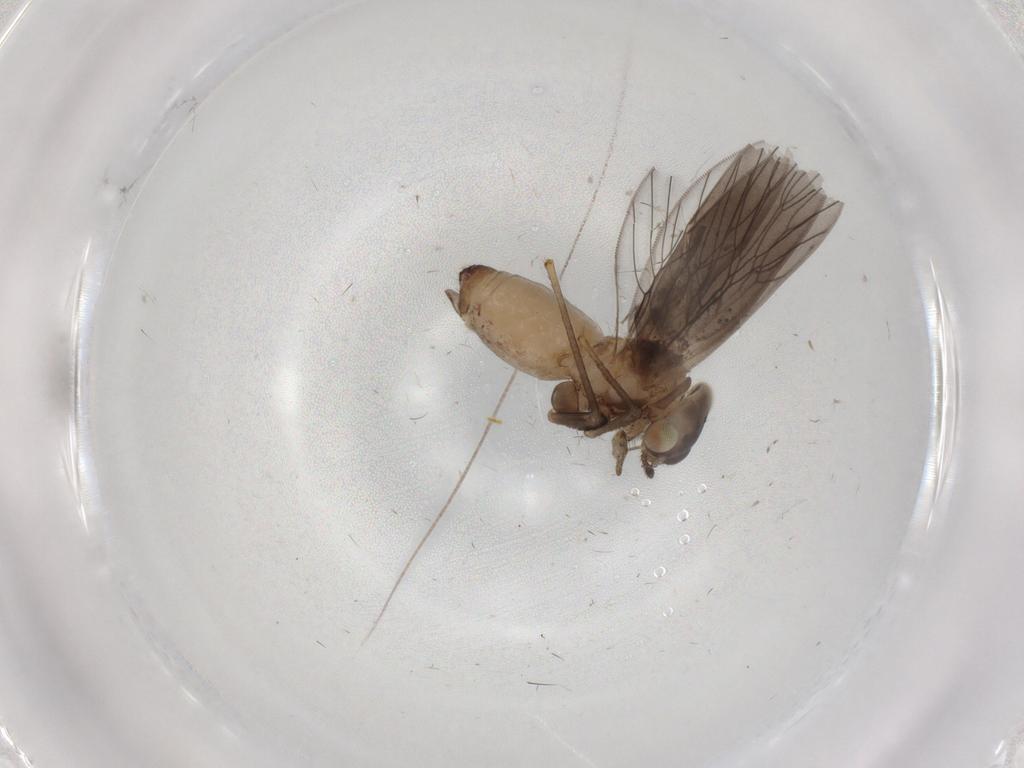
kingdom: Animalia
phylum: Arthropoda
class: Insecta
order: Psocodea
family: Lepidopsocidae
